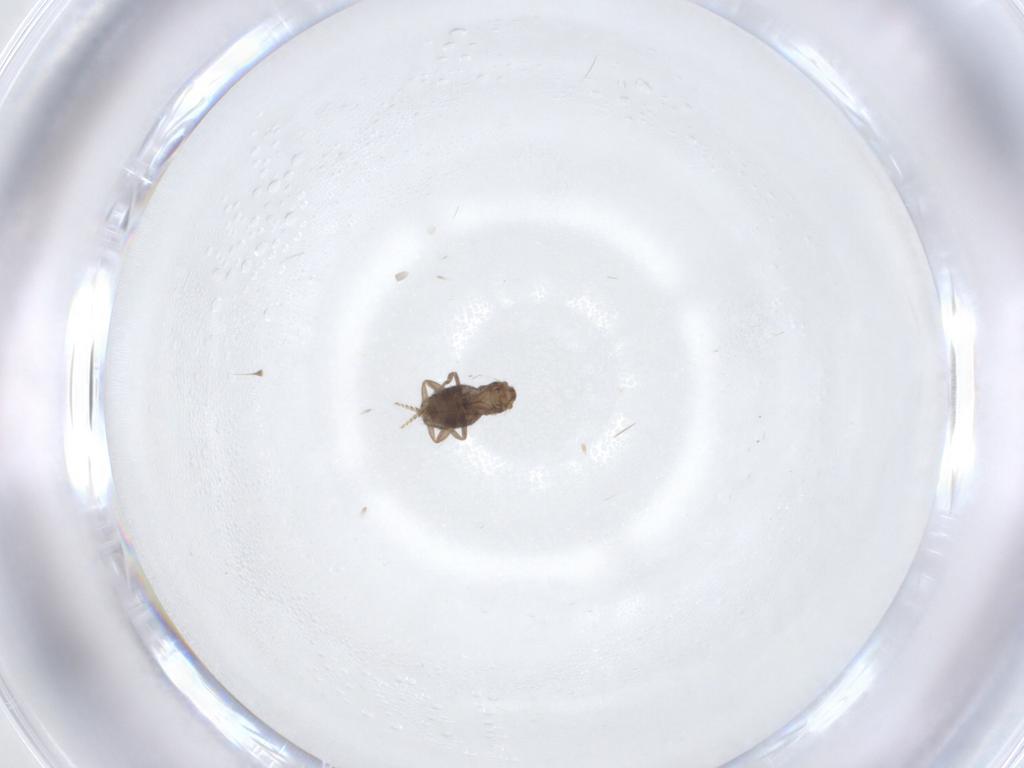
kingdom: Animalia
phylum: Arthropoda
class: Insecta
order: Diptera
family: Phoridae
